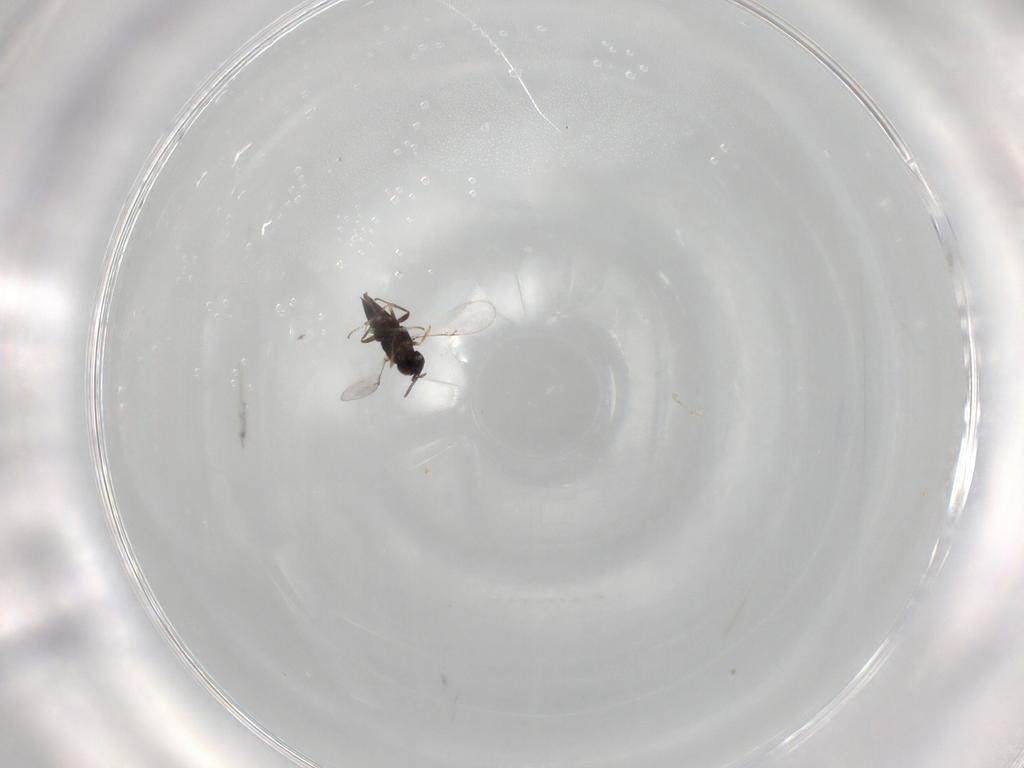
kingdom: Animalia
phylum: Arthropoda
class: Insecta
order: Hymenoptera
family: Encyrtidae
